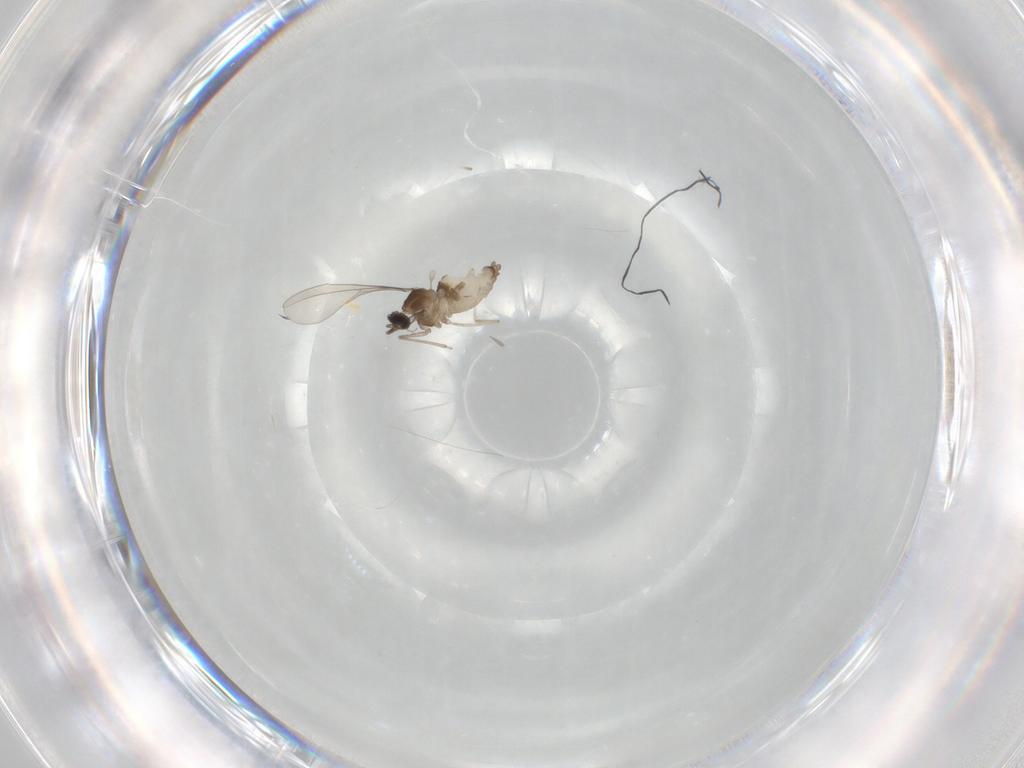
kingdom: Animalia
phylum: Arthropoda
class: Insecta
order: Diptera
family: Cecidomyiidae
